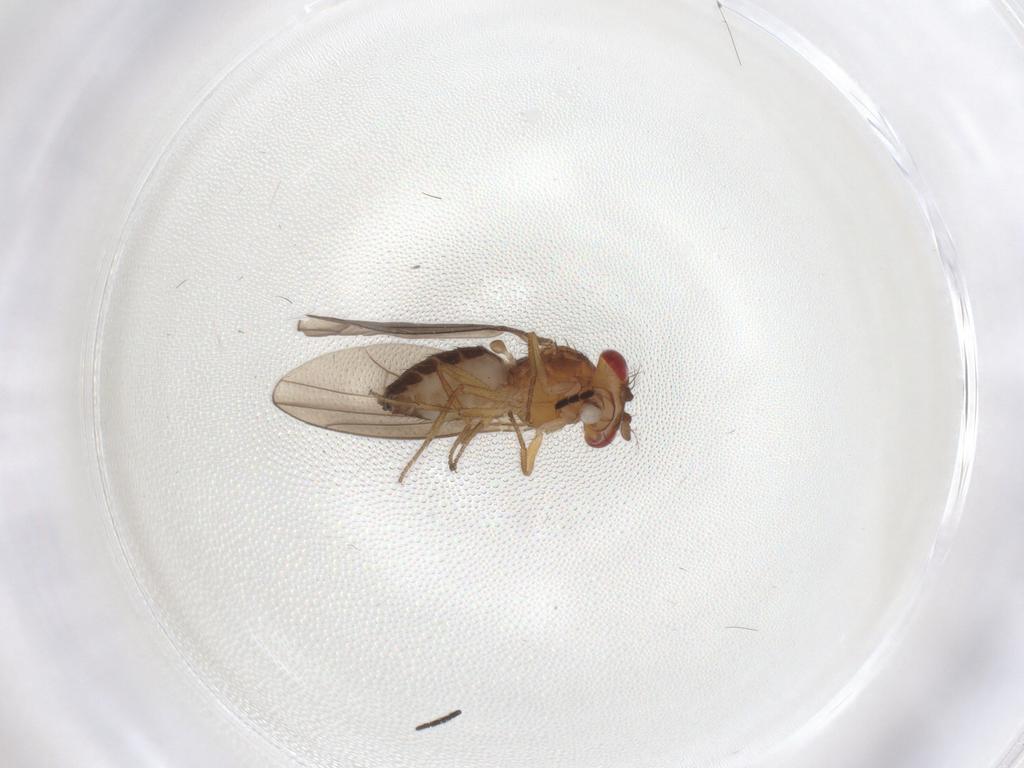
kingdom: Animalia
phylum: Arthropoda
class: Insecta
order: Diptera
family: Drosophilidae
